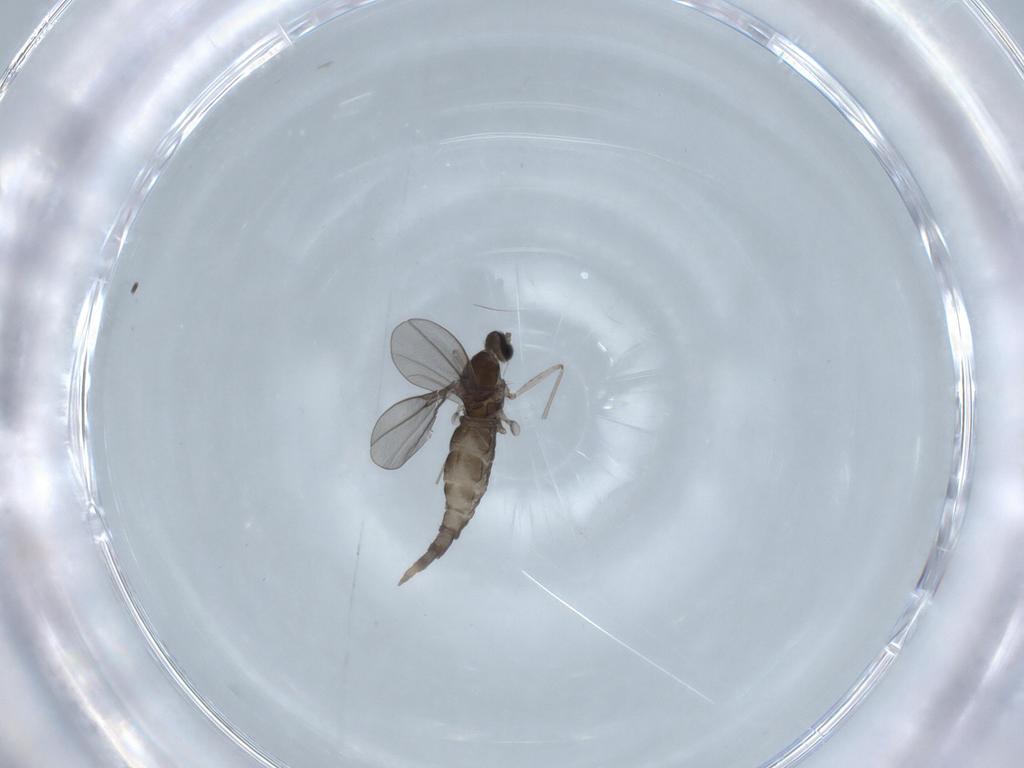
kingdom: Animalia
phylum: Arthropoda
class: Insecta
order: Diptera
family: Cecidomyiidae
